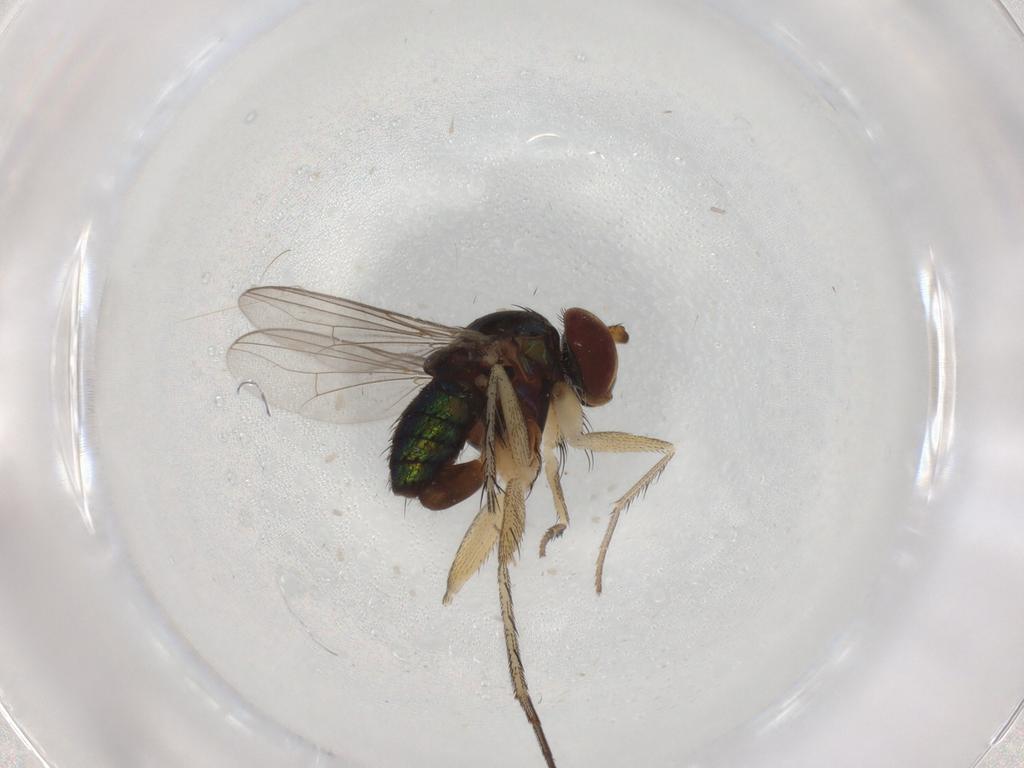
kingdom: Animalia
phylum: Arthropoda
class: Insecta
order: Diptera
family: Dolichopodidae
